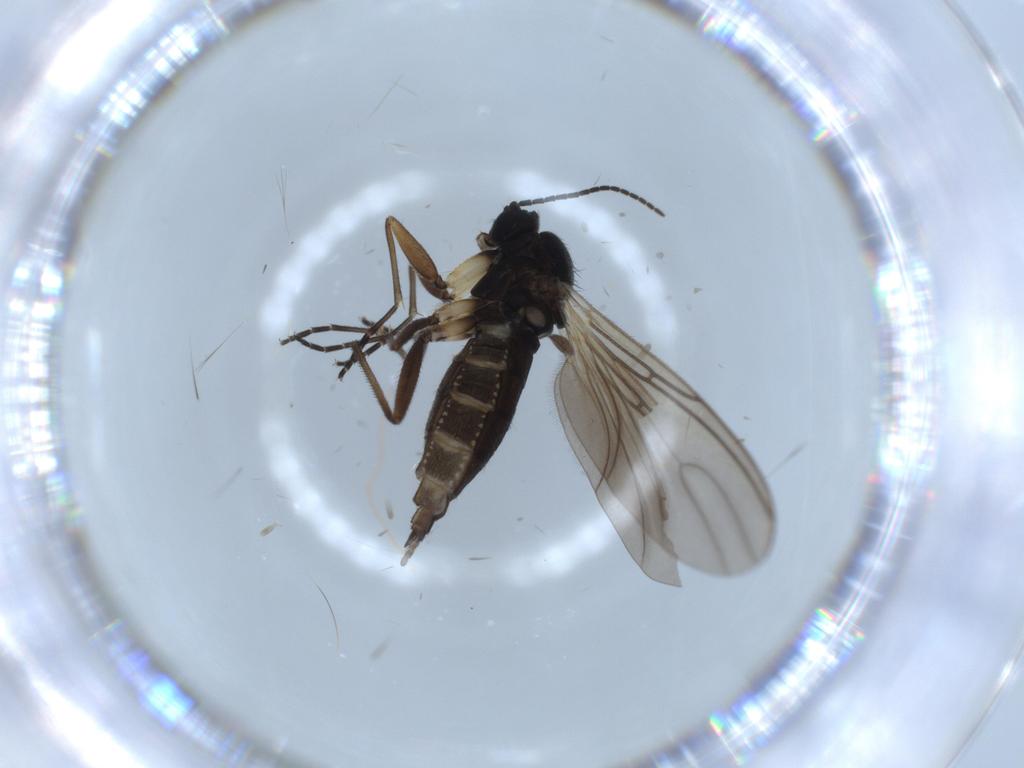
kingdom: Animalia
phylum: Arthropoda
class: Insecta
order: Diptera
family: Sciaridae
